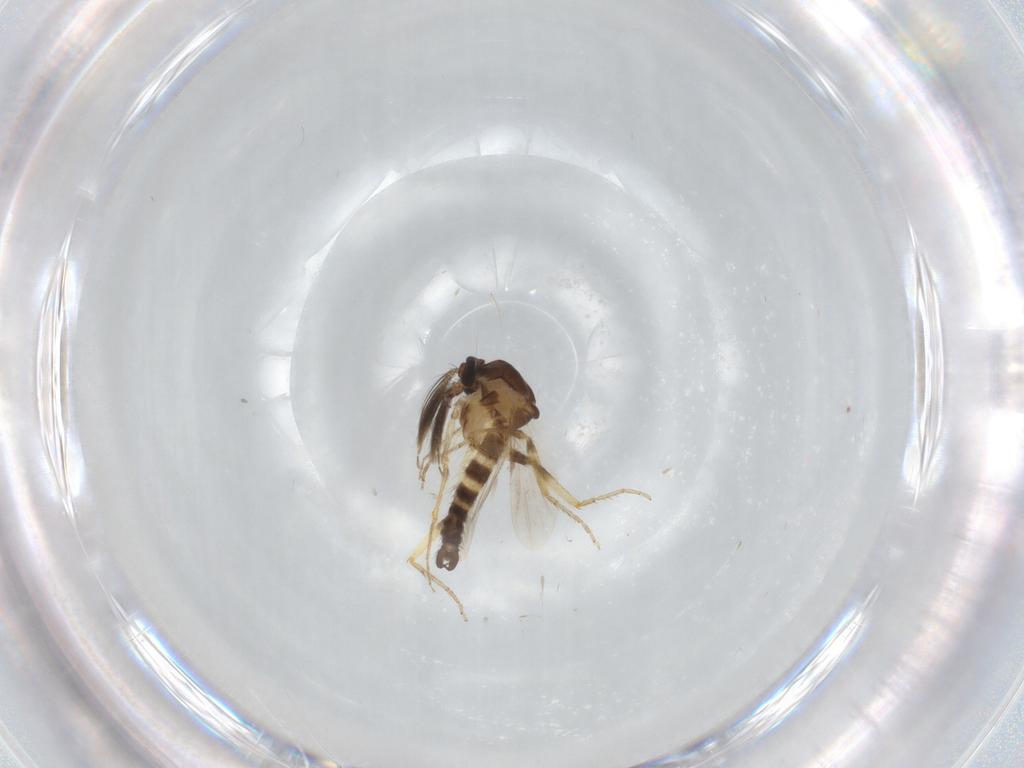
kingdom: Animalia
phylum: Arthropoda
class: Insecta
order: Diptera
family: Ceratopogonidae
